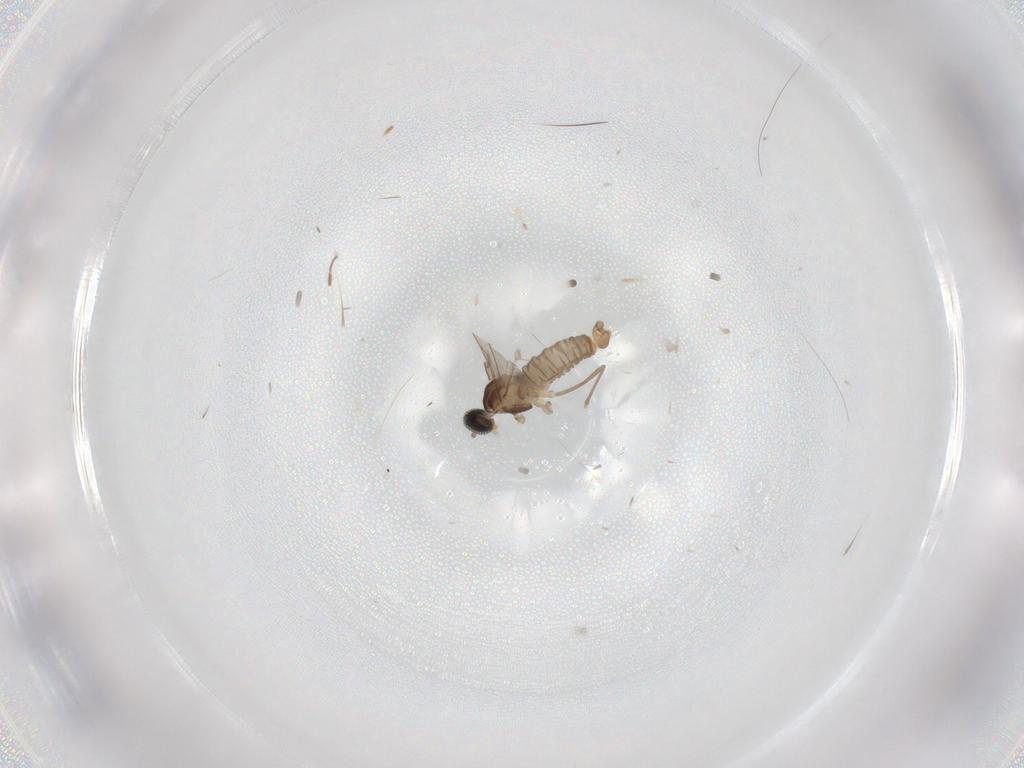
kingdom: Animalia
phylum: Arthropoda
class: Insecta
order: Diptera
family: Cecidomyiidae
